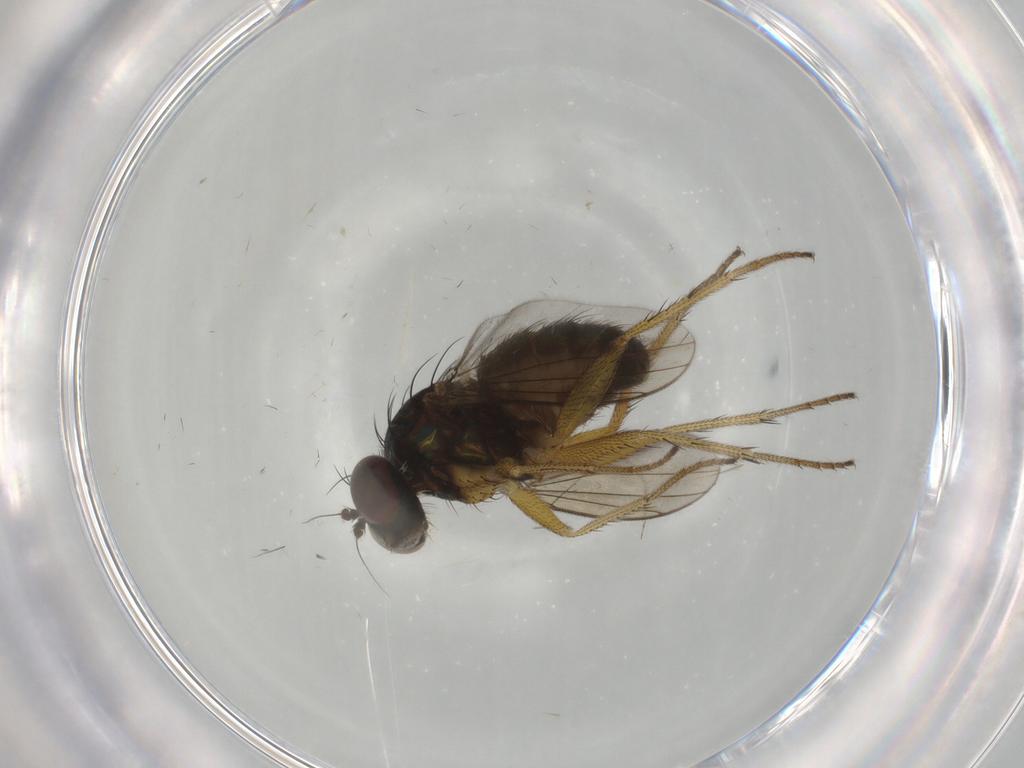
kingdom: Animalia
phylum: Arthropoda
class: Insecta
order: Diptera
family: Dolichopodidae
